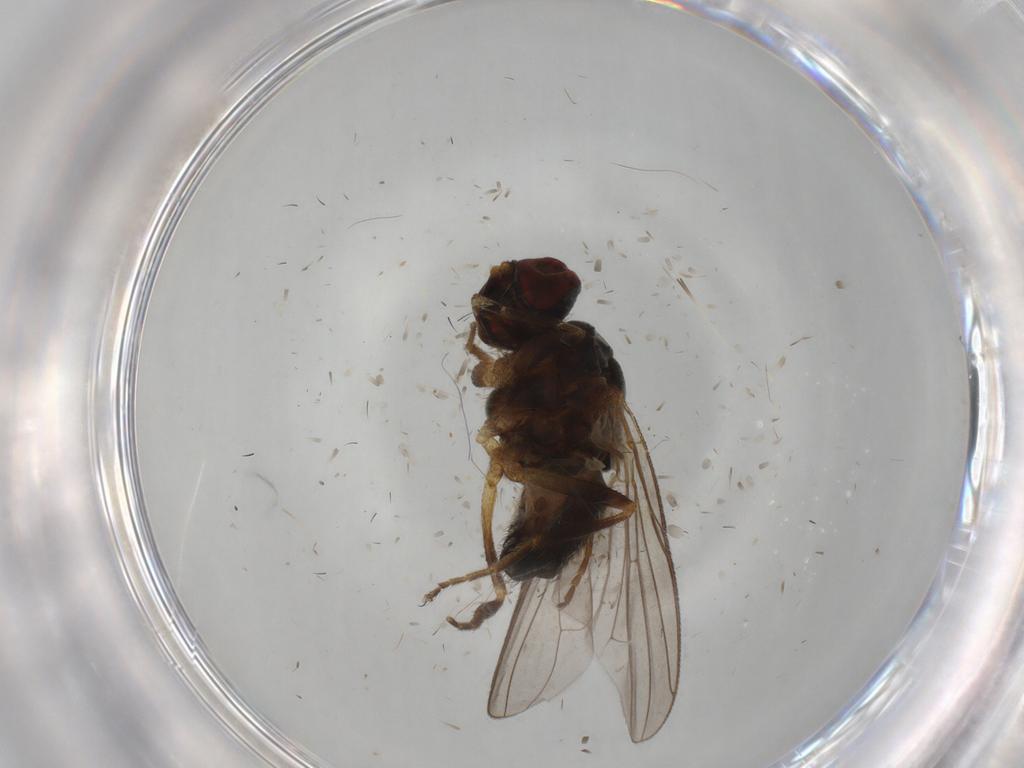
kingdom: Animalia
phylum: Arthropoda
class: Insecta
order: Diptera
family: Muscidae
